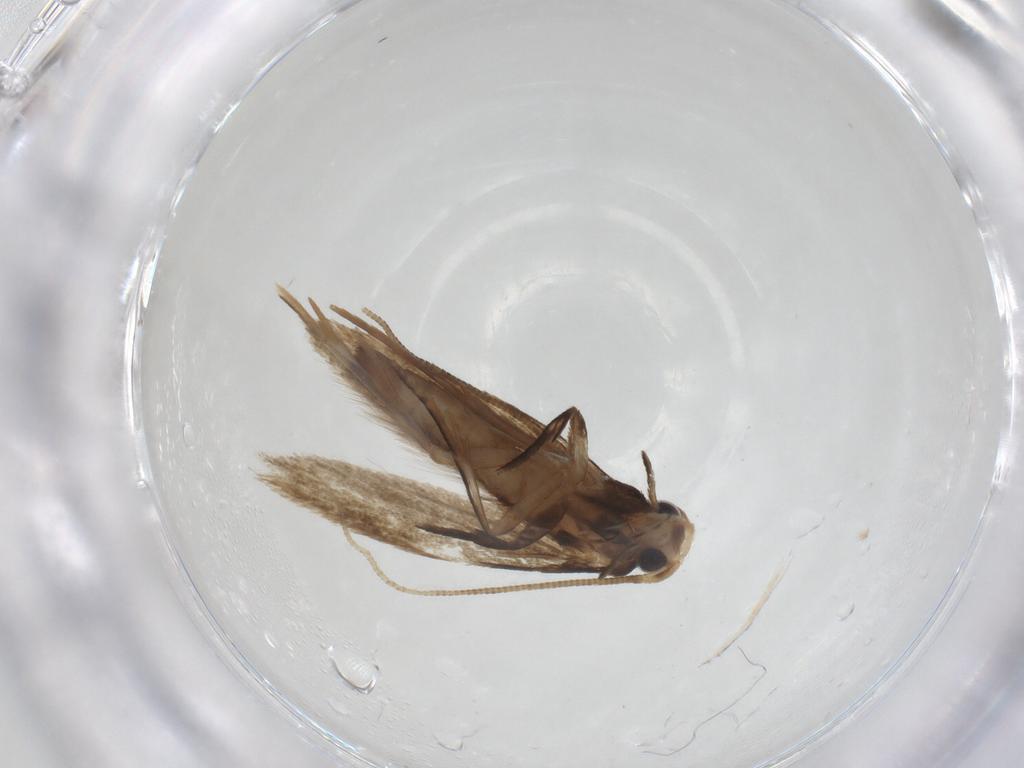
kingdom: Animalia
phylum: Arthropoda
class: Insecta
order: Lepidoptera
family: Tineidae
